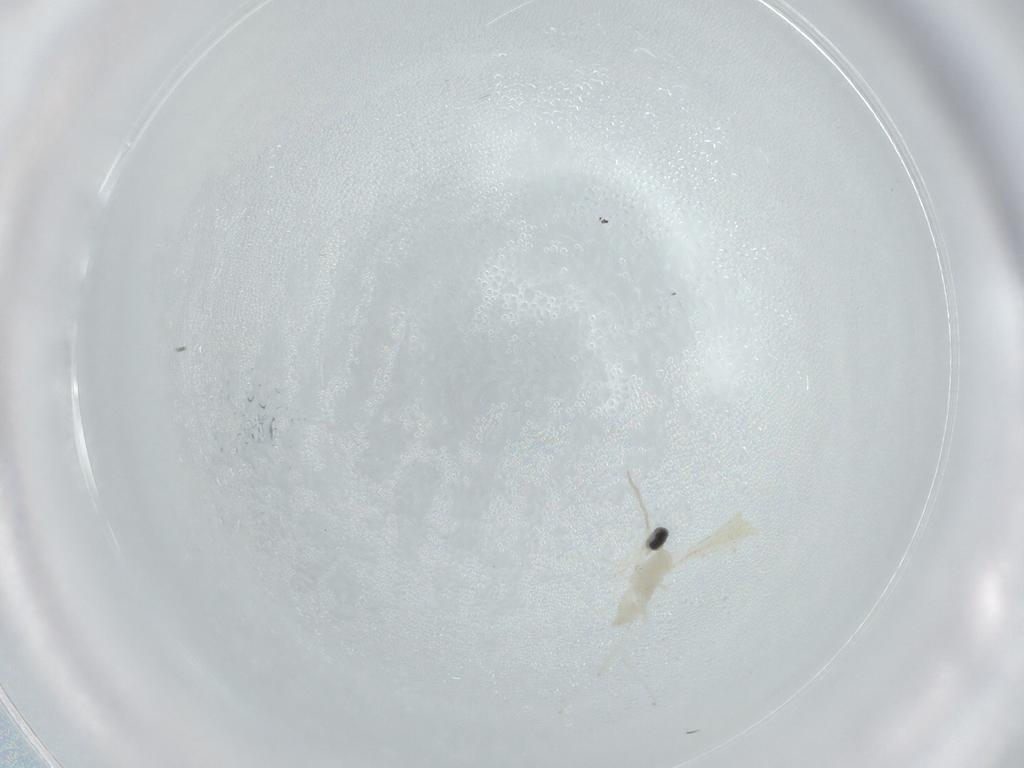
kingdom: Animalia
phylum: Arthropoda
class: Insecta
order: Diptera
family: Cecidomyiidae
